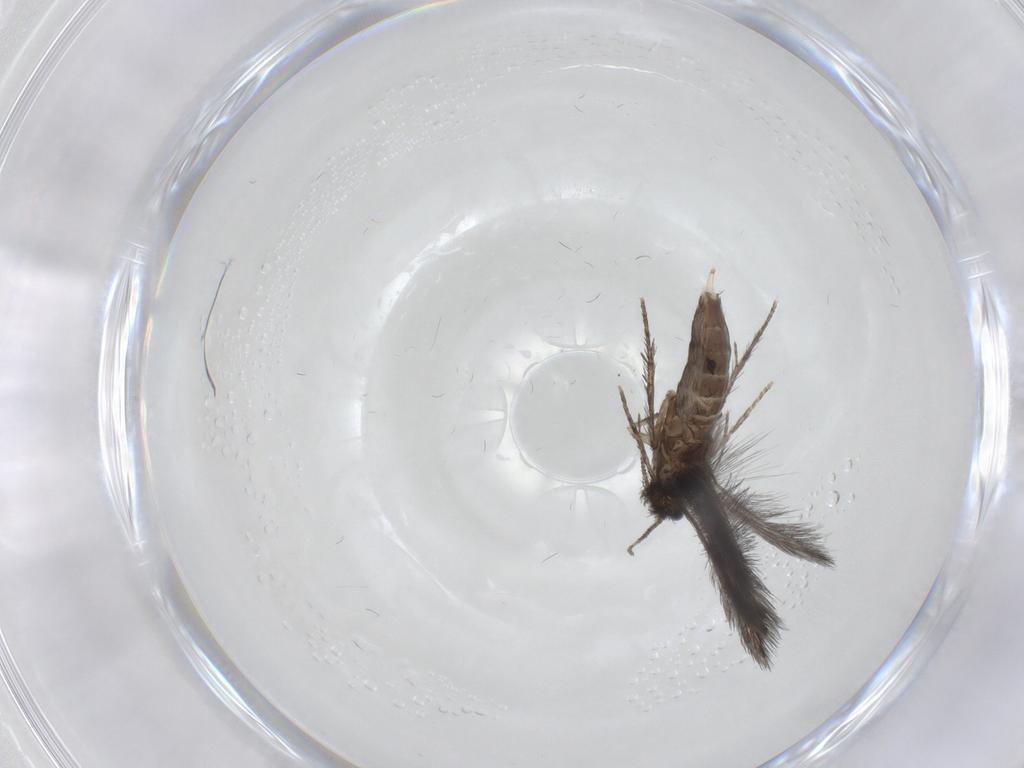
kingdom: Animalia
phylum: Arthropoda
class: Insecta
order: Trichoptera
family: Hydroptilidae
